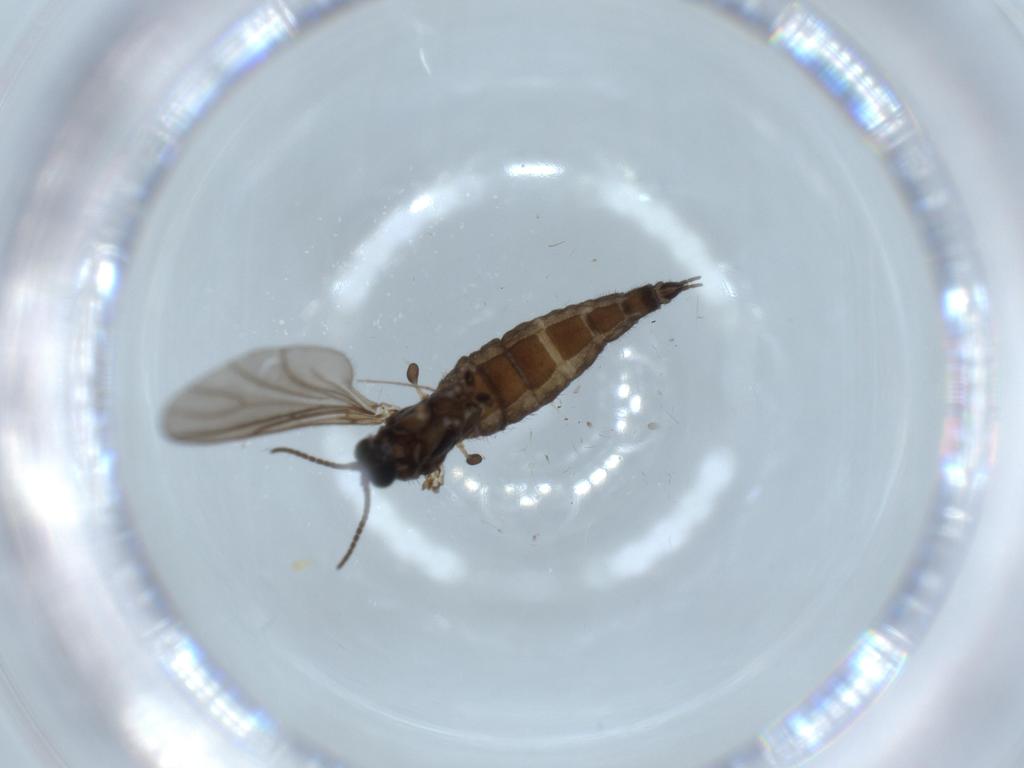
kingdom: Animalia
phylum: Arthropoda
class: Insecta
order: Diptera
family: Sciaridae
